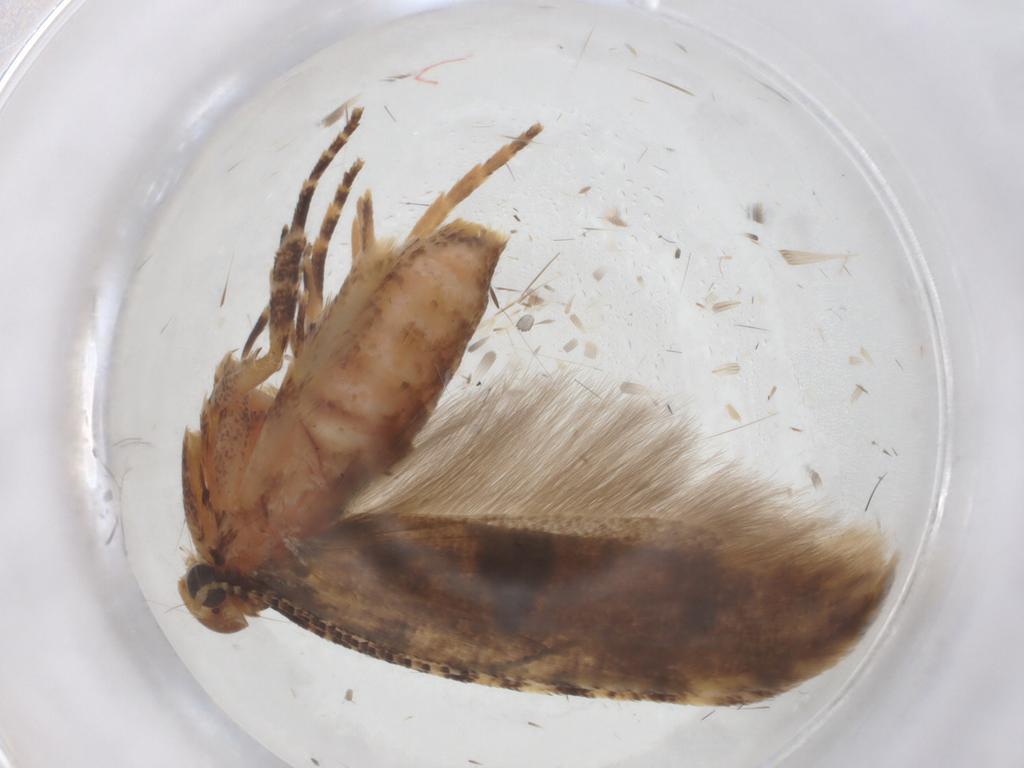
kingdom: Animalia
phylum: Arthropoda
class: Insecta
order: Lepidoptera
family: Gelechiidae
